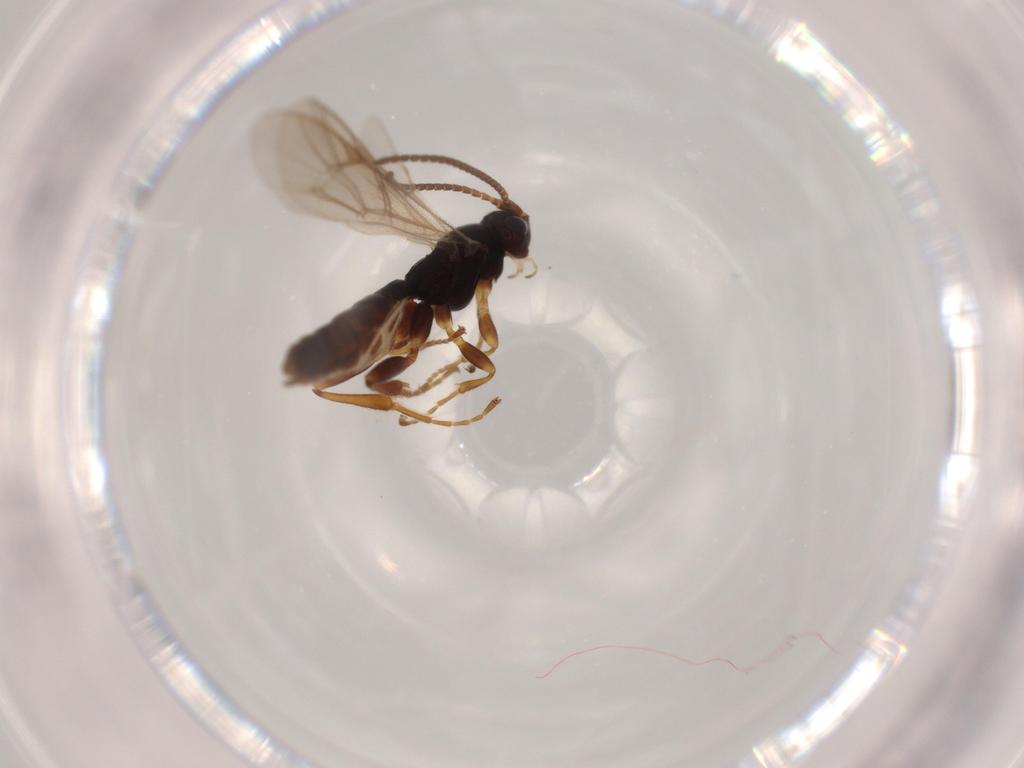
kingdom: Animalia
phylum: Arthropoda
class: Insecta
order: Hymenoptera
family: Ichneumonidae
